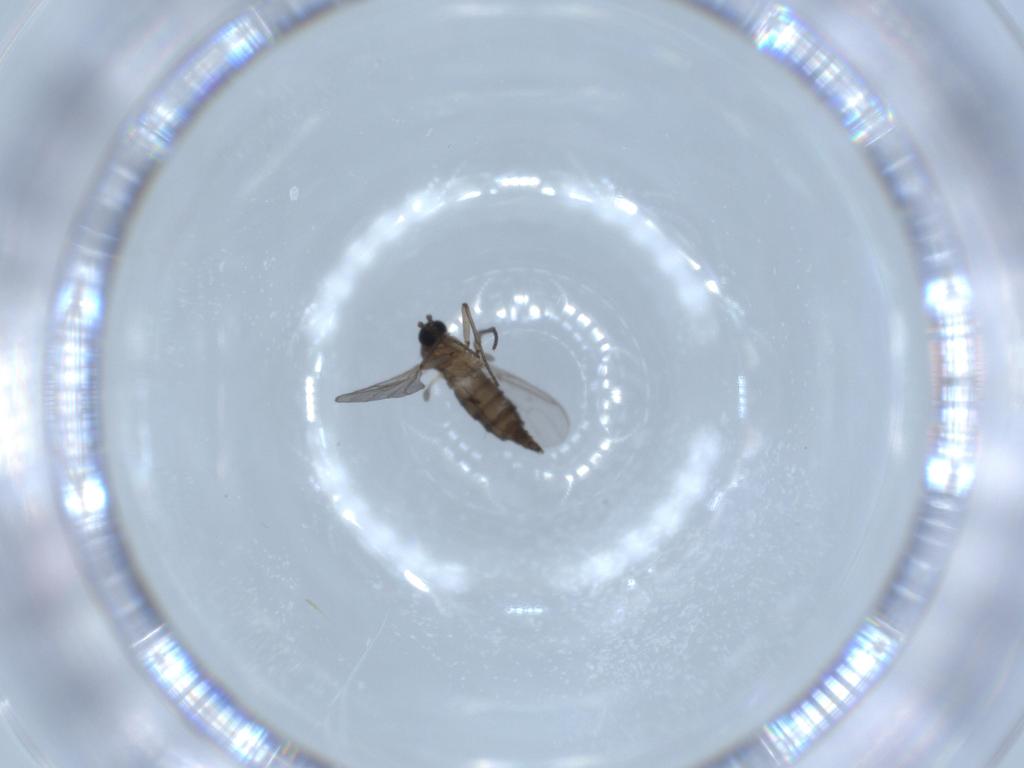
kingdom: Animalia
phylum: Arthropoda
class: Insecta
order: Diptera
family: Sciaridae
